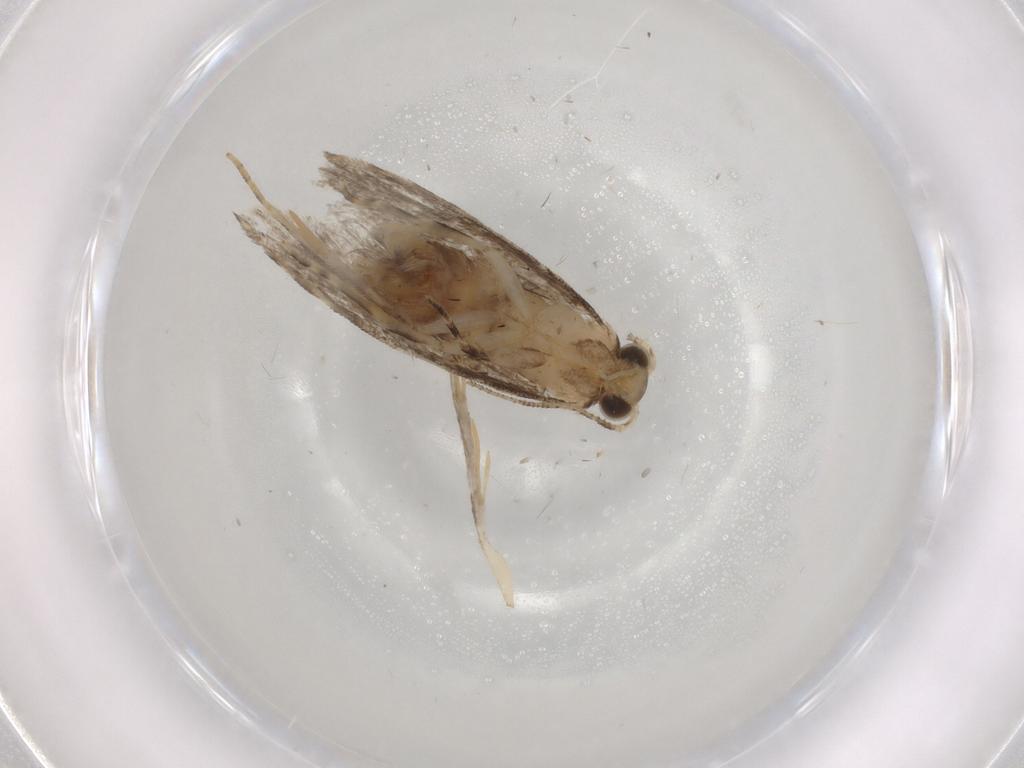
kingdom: Animalia
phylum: Arthropoda
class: Insecta
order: Lepidoptera
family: Tineidae
